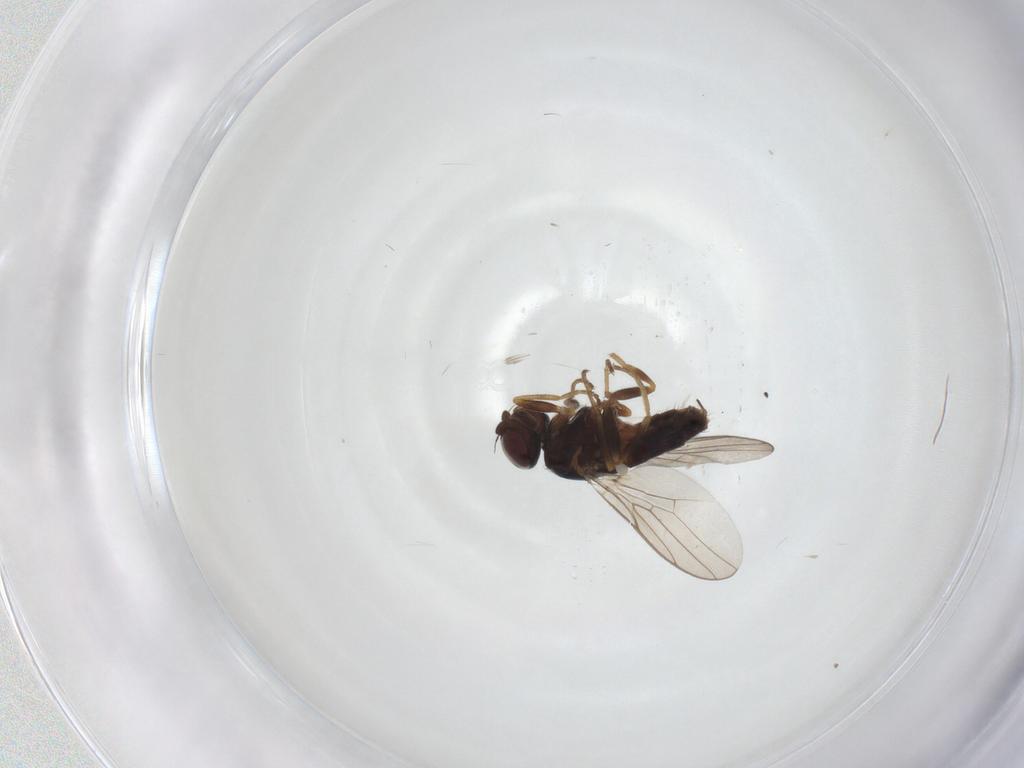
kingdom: Animalia
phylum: Arthropoda
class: Insecta
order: Diptera
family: Chloropidae
